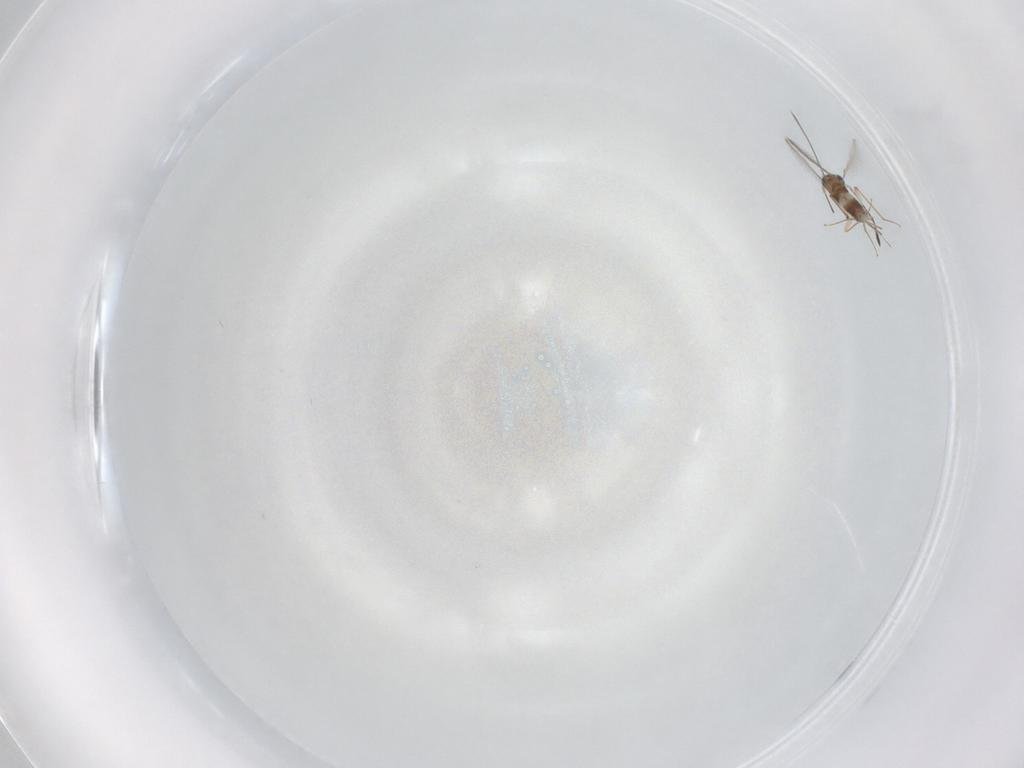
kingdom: Animalia
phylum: Arthropoda
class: Insecta
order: Hymenoptera
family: Mymaridae
